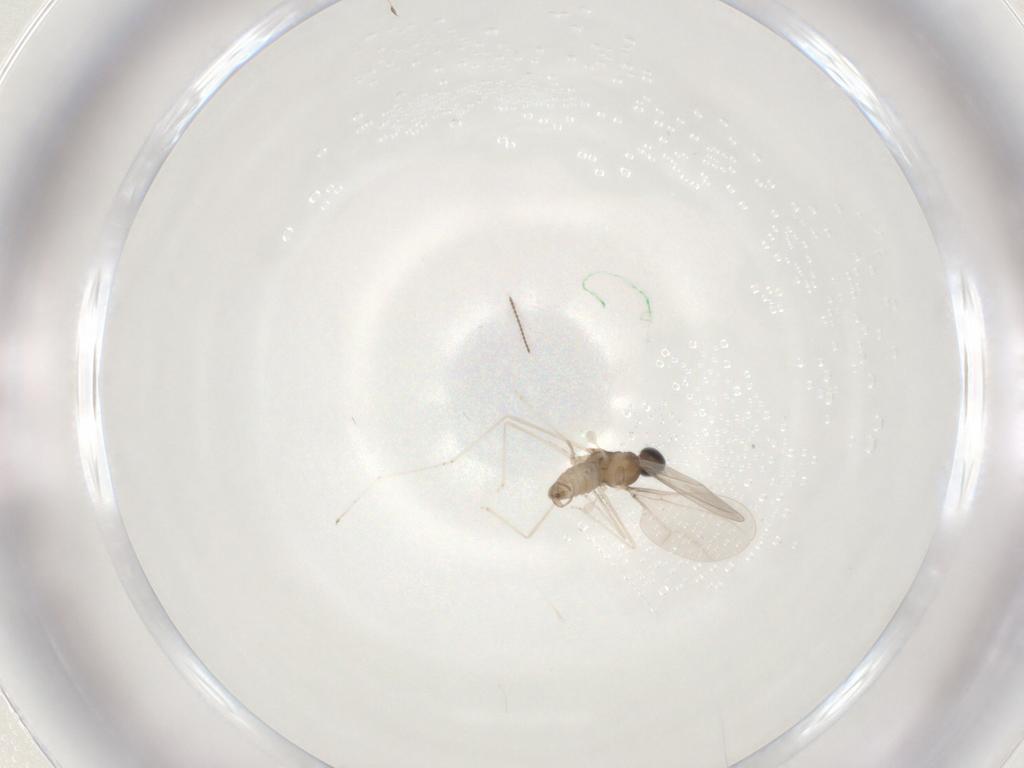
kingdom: Animalia
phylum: Arthropoda
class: Insecta
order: Diptera
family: Cecidomyiidae
